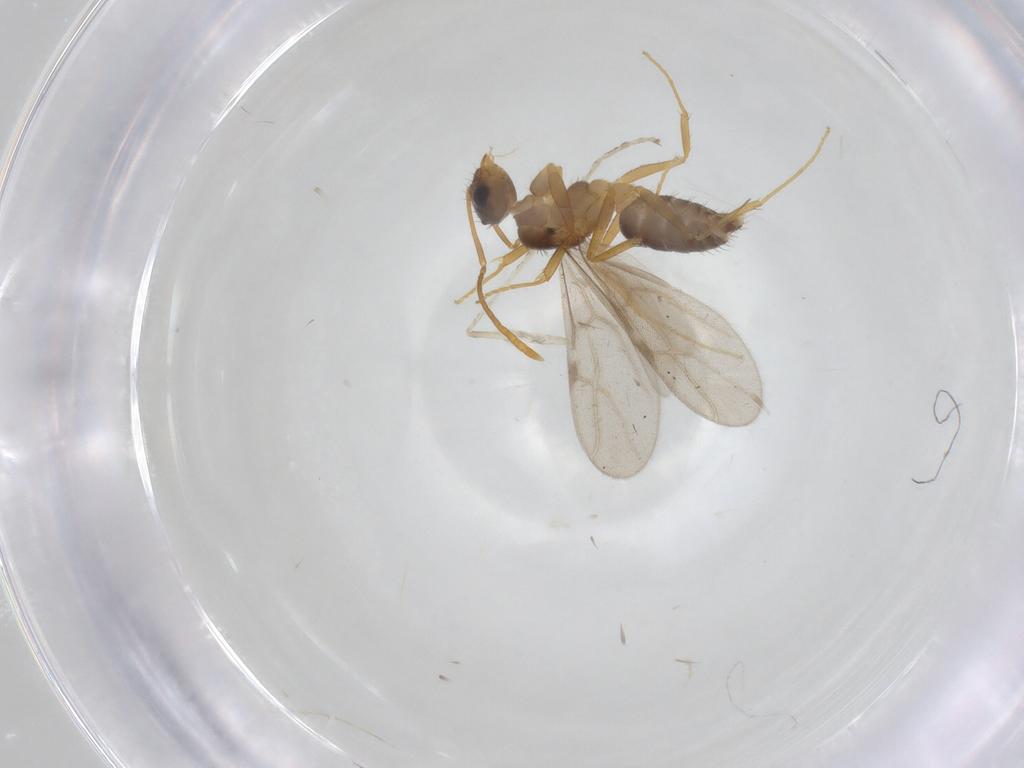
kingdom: Animalia
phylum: Arthropoda
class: Insecta
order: Hymenoptera
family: Formicidae
